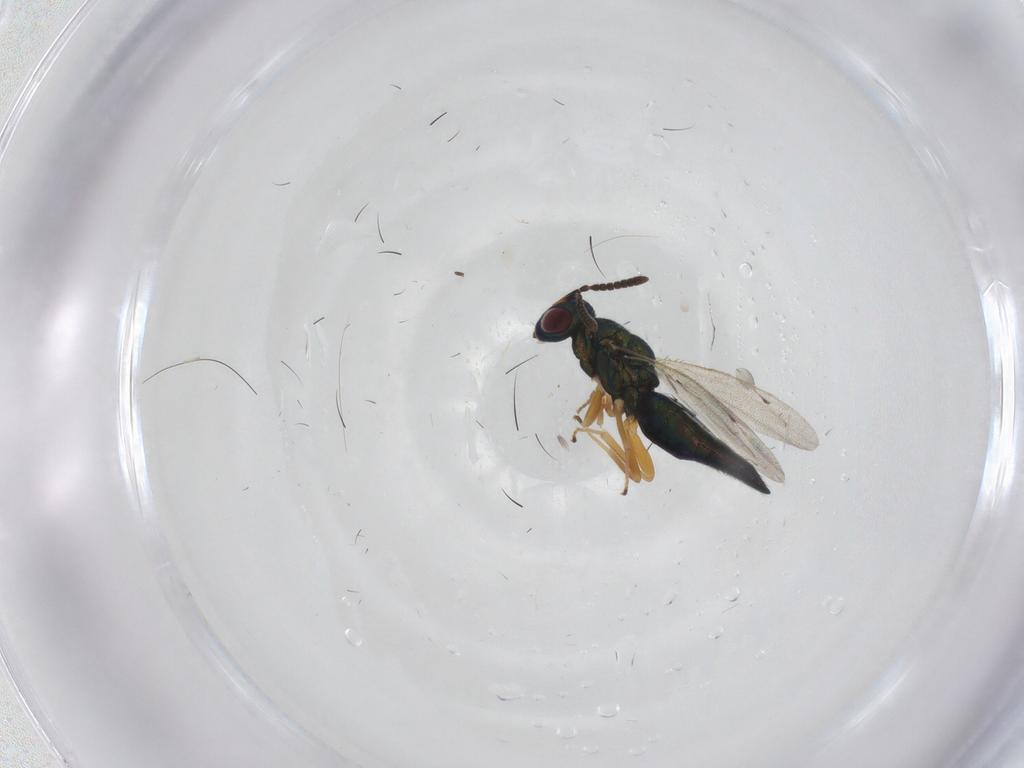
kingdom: Animalia
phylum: Arthropoda
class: Insecta
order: Hymenoptera
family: Pteromalidae
